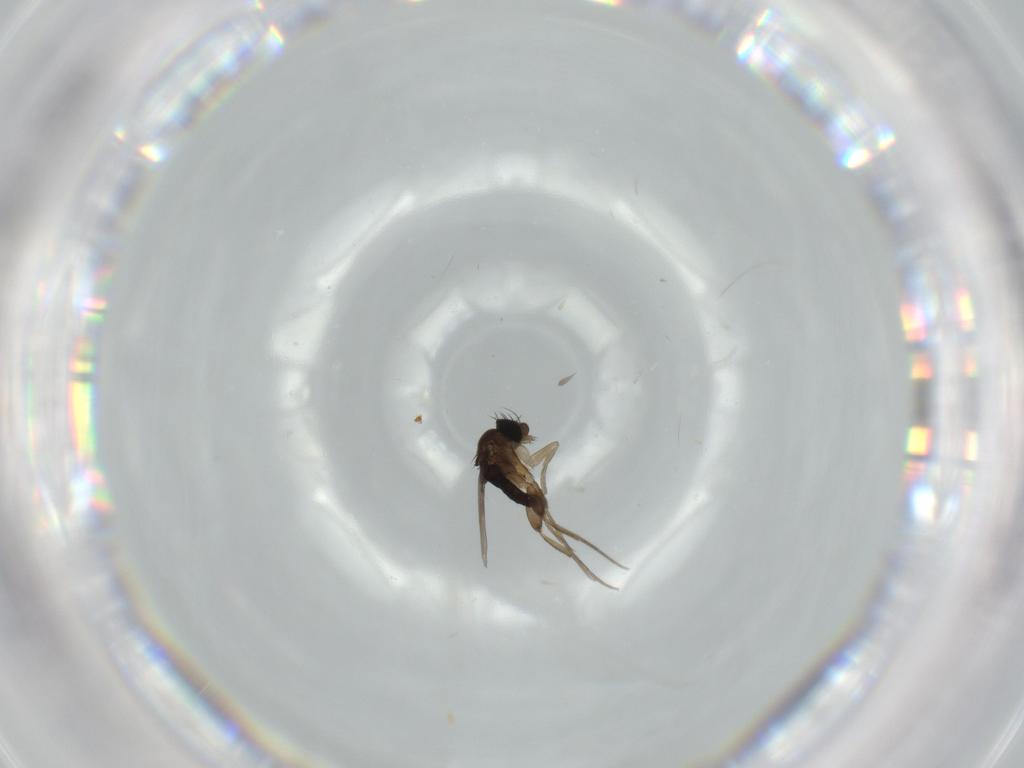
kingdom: Animalia
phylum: Arthropoda
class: Insecta
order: Diptera
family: Phoridae
